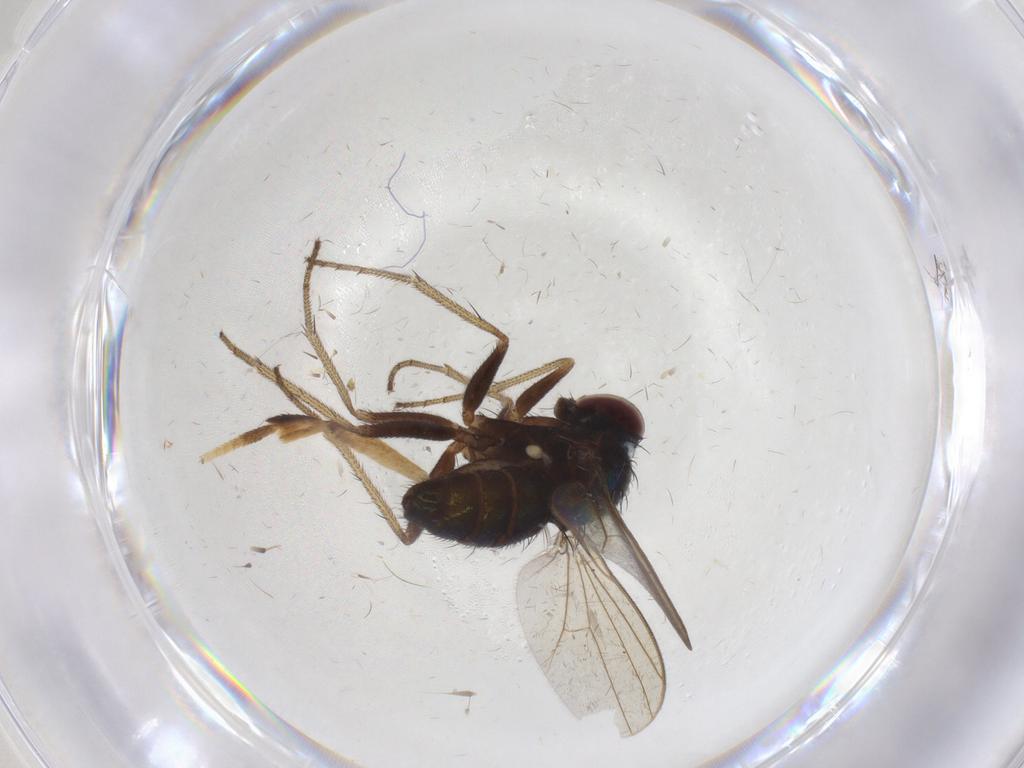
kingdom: Animalia
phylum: Arthropoda
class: Insecta
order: Diptera
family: Dolichopodidae
